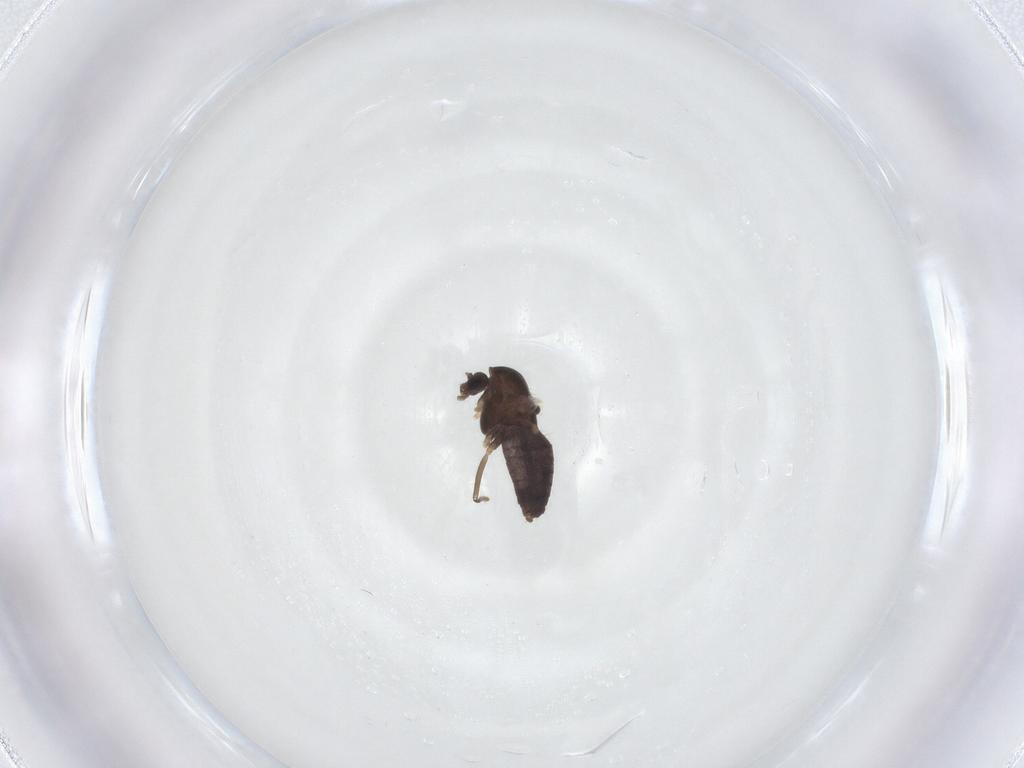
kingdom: Animalia
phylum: Arthropoda
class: Insecta
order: Diptera
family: Chironomidae
